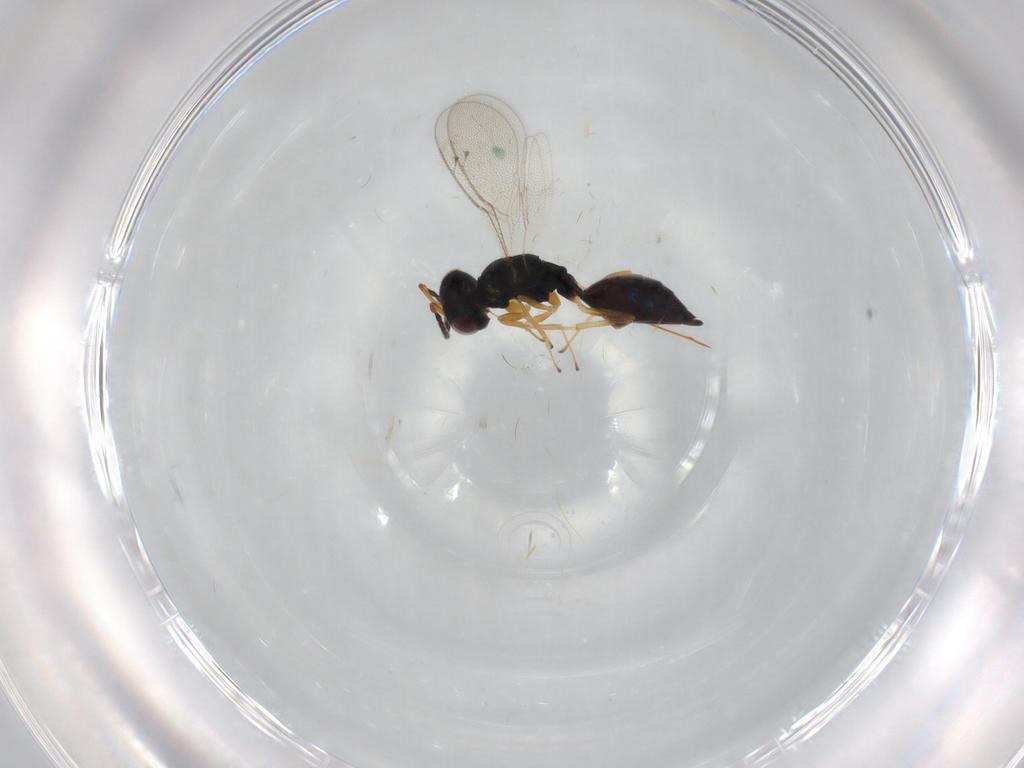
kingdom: Animalia
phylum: Arthropoda
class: Insecta
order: Hymenoptera
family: Pteromalidae
